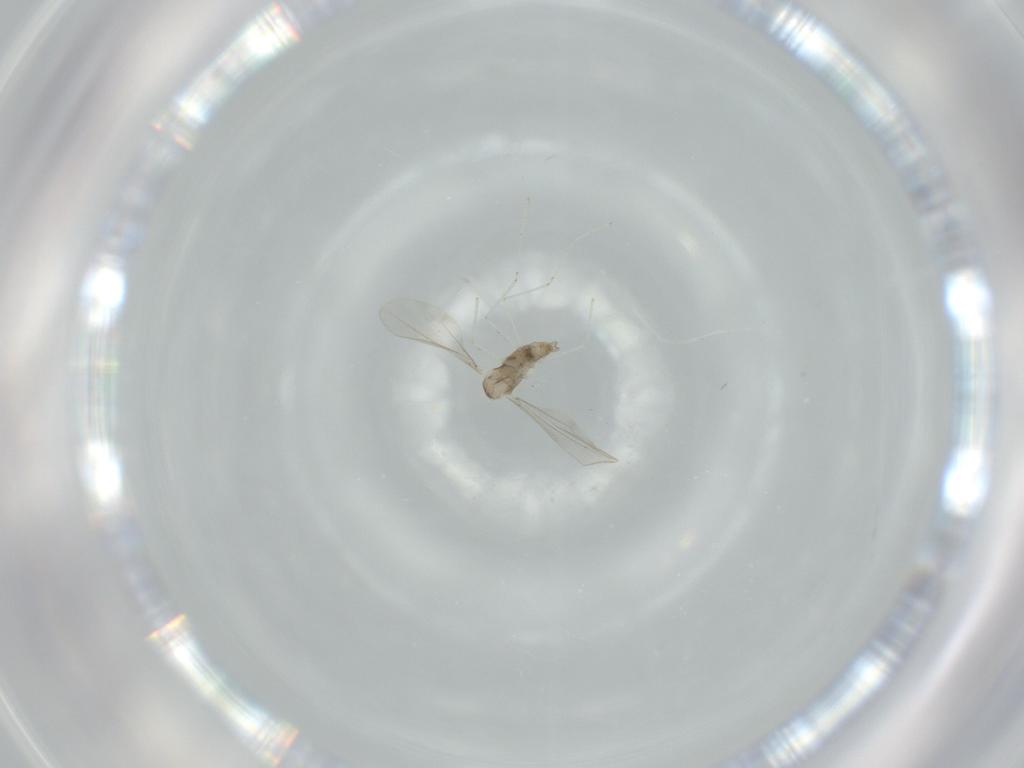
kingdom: Animalia
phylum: Arthropoda
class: Insecta
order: Diptera
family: Cecidomyiidae
